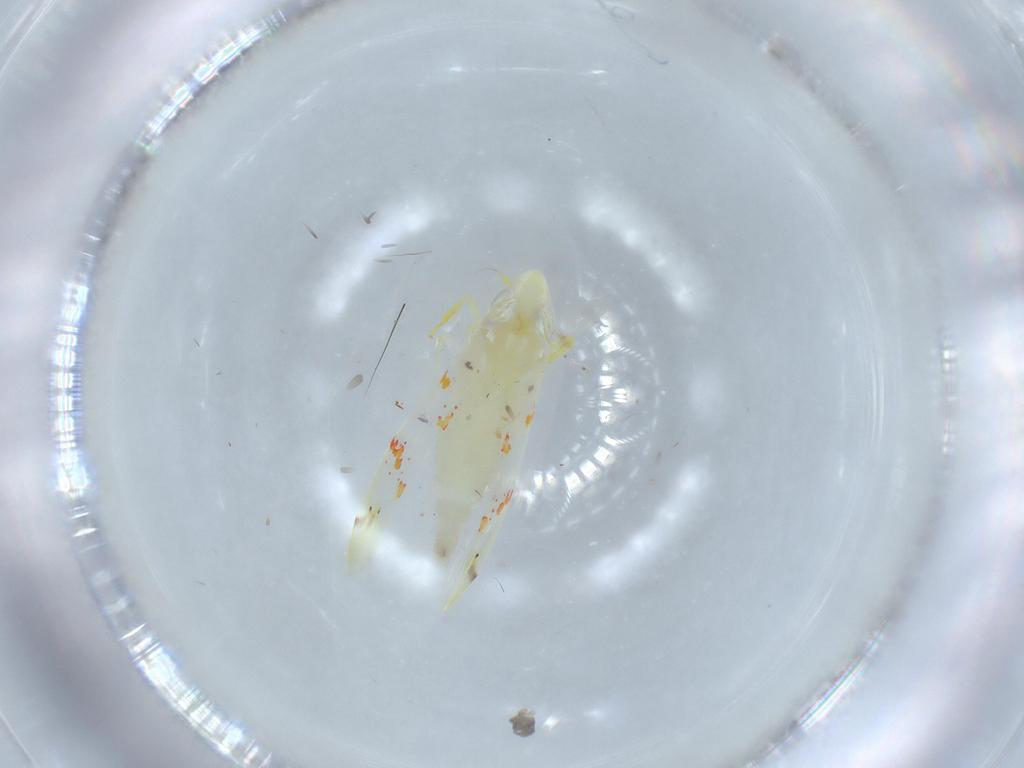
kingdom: Animalia
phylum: Arthropoda
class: Insecta
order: Hemiptera
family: Cicadellidae
